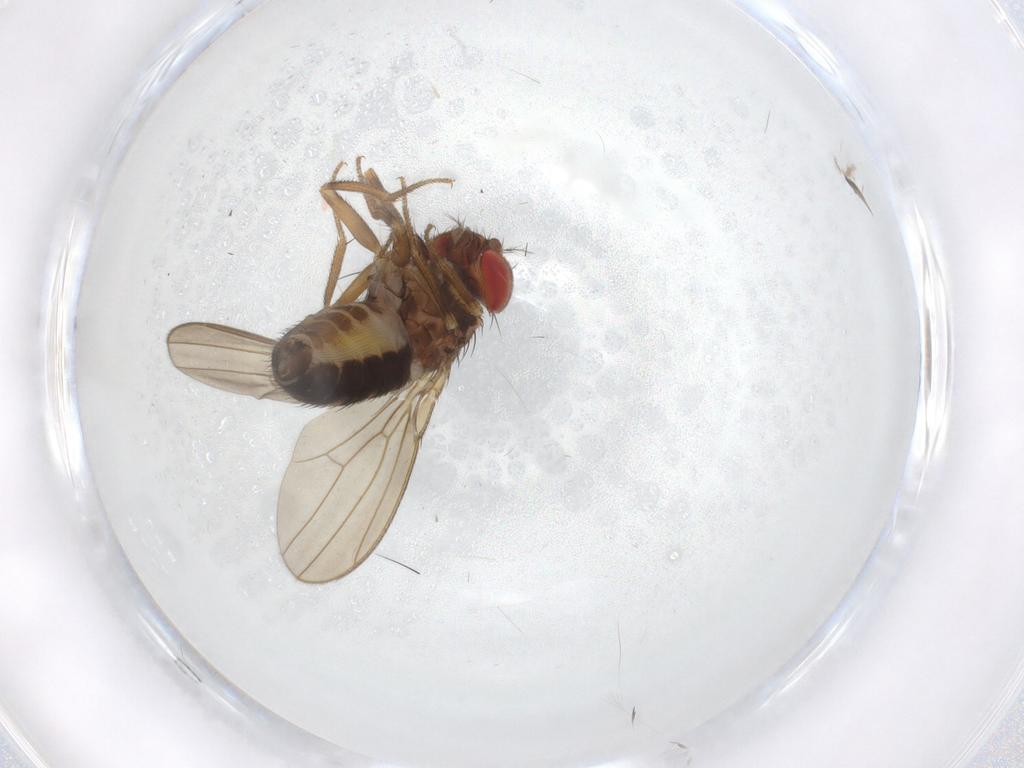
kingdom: Animalia
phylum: Arthropoda
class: Insecta
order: Diptera
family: Drosophilidae
